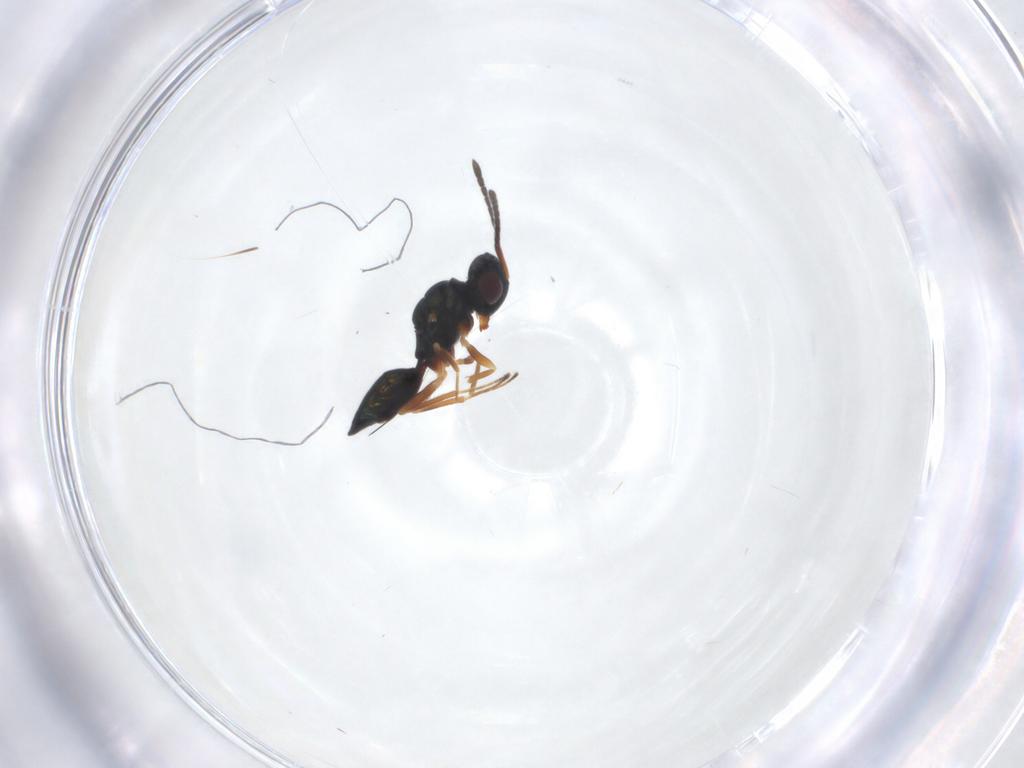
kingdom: Animalia
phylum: Arthropoda
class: Insecta
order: Hymenoptera
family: Pteromalidae
